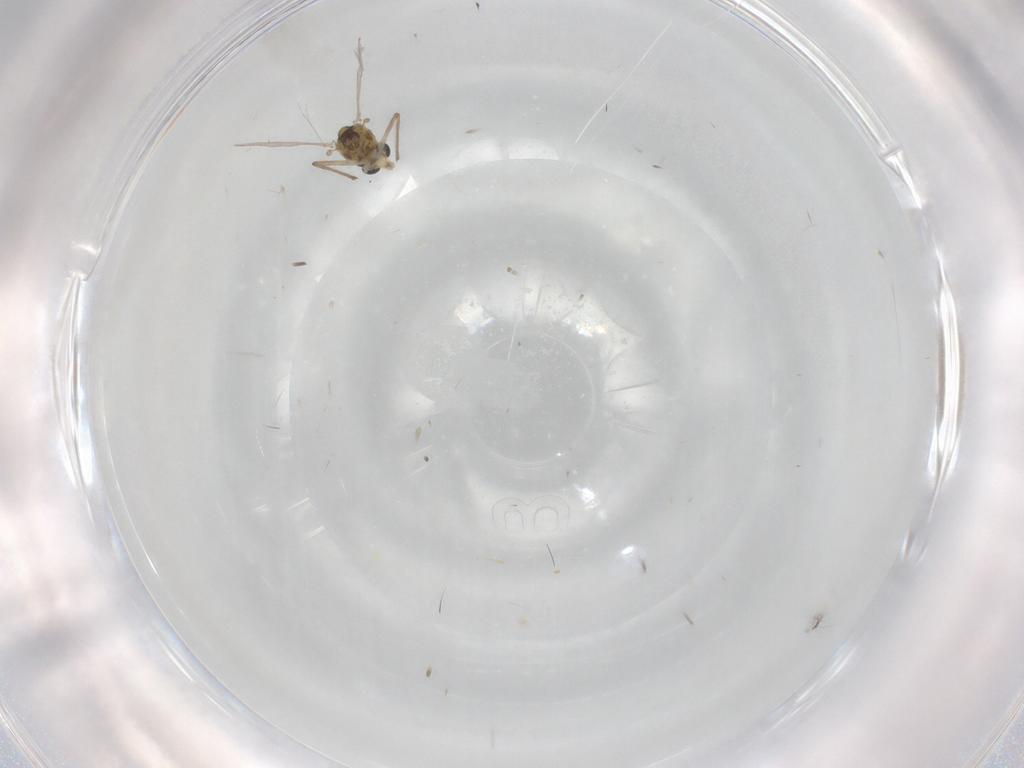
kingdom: Animalia
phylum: Arthropoda
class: Insecta
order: Diptera
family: Chironomidae
